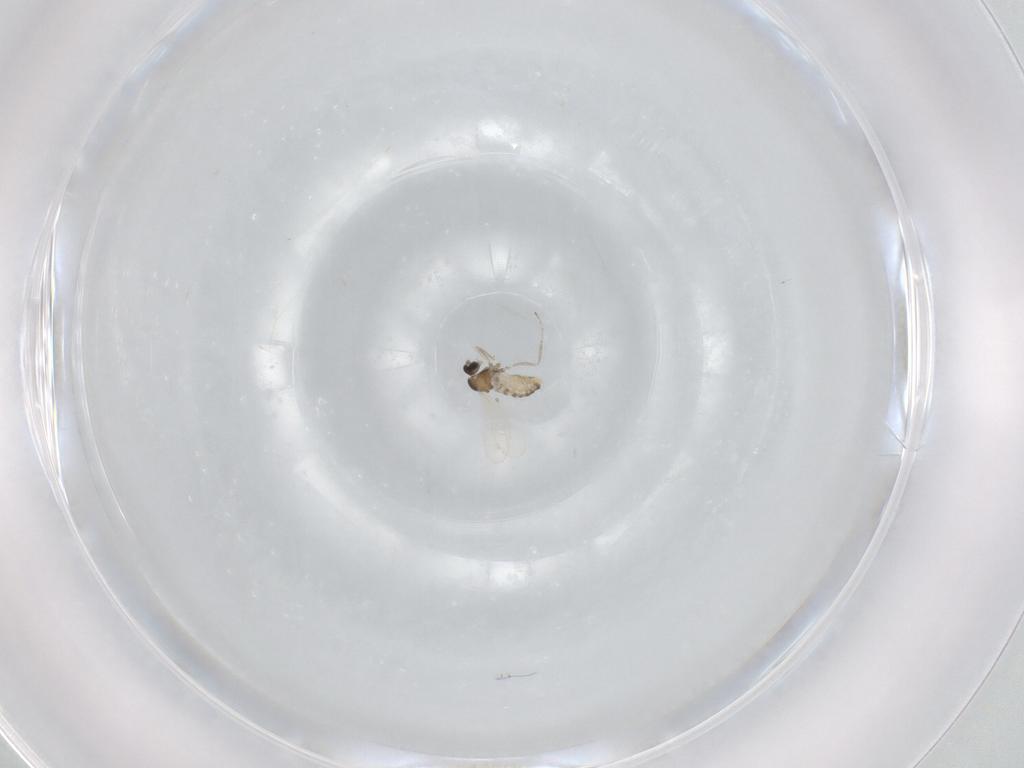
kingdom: Animalia
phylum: Arthropoda
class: Insecta
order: Diptera
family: Cecidomyiidae
